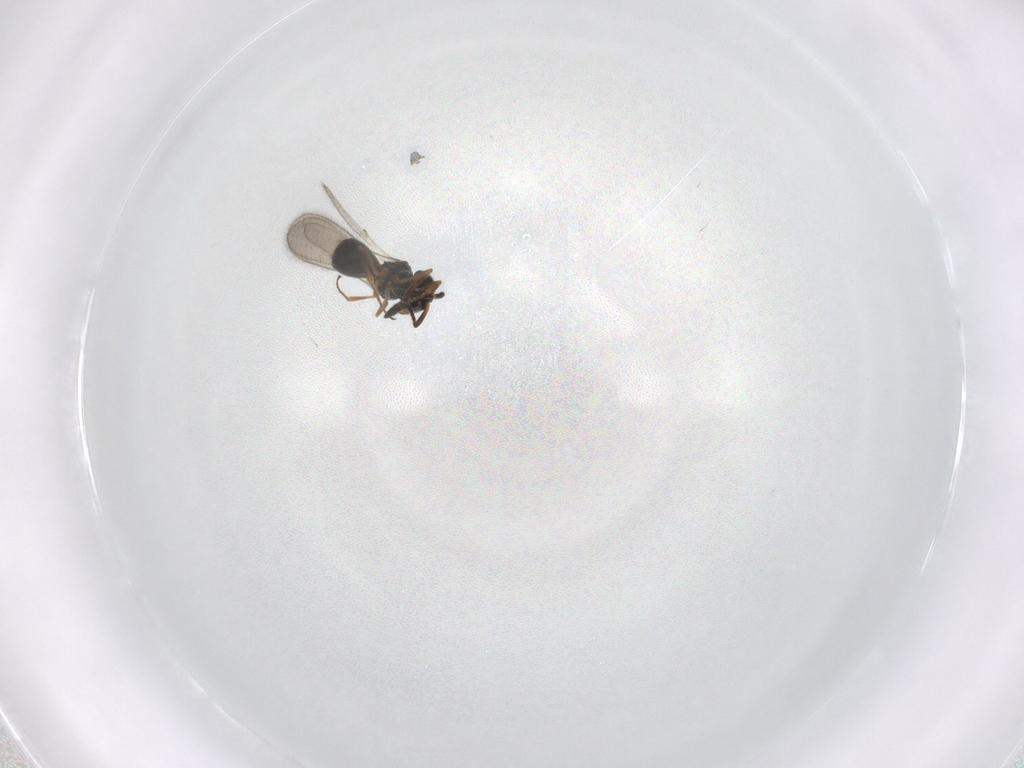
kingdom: Animalia
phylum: Arthropoda
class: Insecta
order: Hymenoptera
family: Scelionidae
